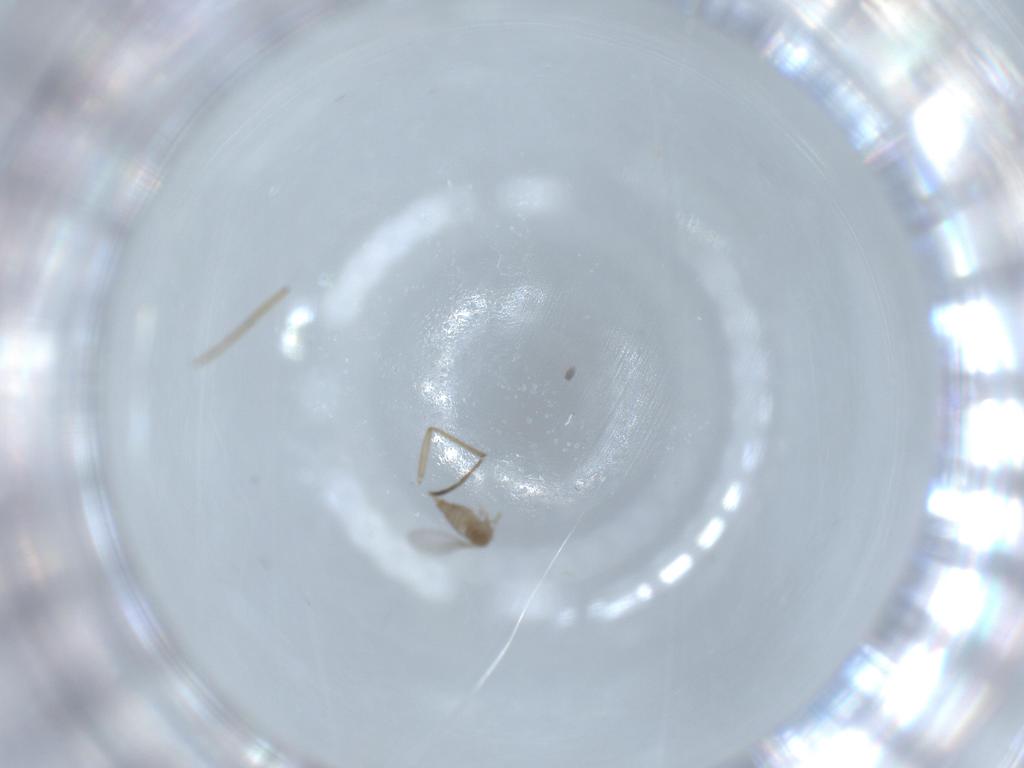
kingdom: Animalia
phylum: Arthropoda
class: Insecta
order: Diptera
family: Cecidomyiidae
